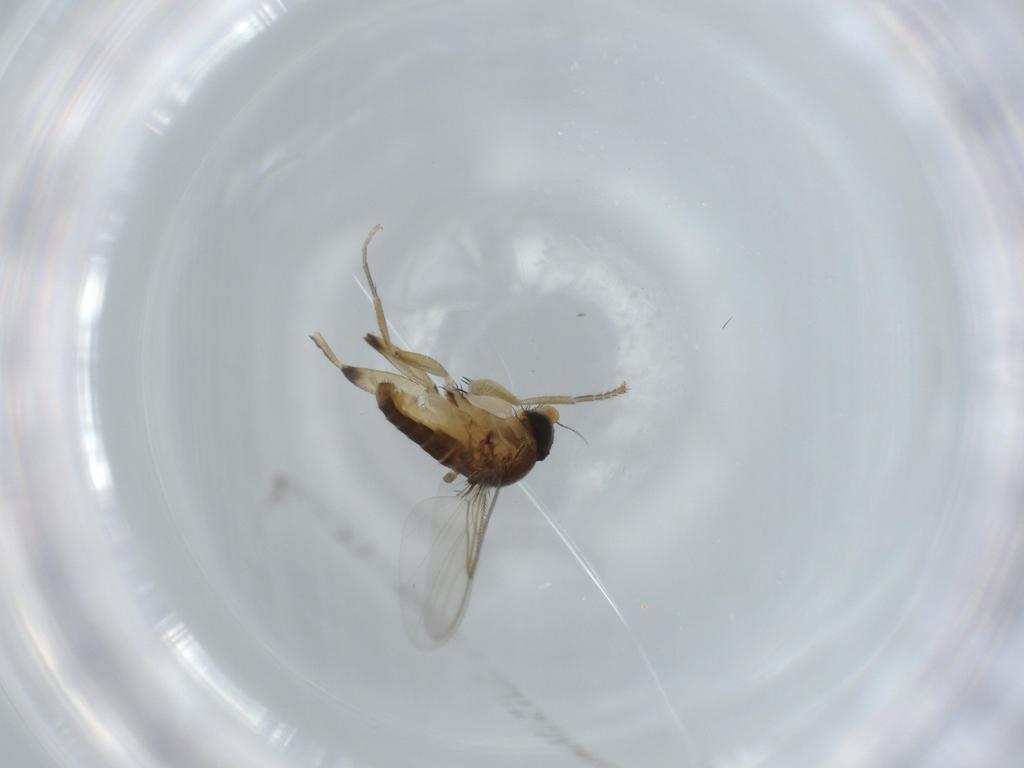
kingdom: Animalia
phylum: Arthropoda
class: Insecta
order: Diptera
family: Phoridae
